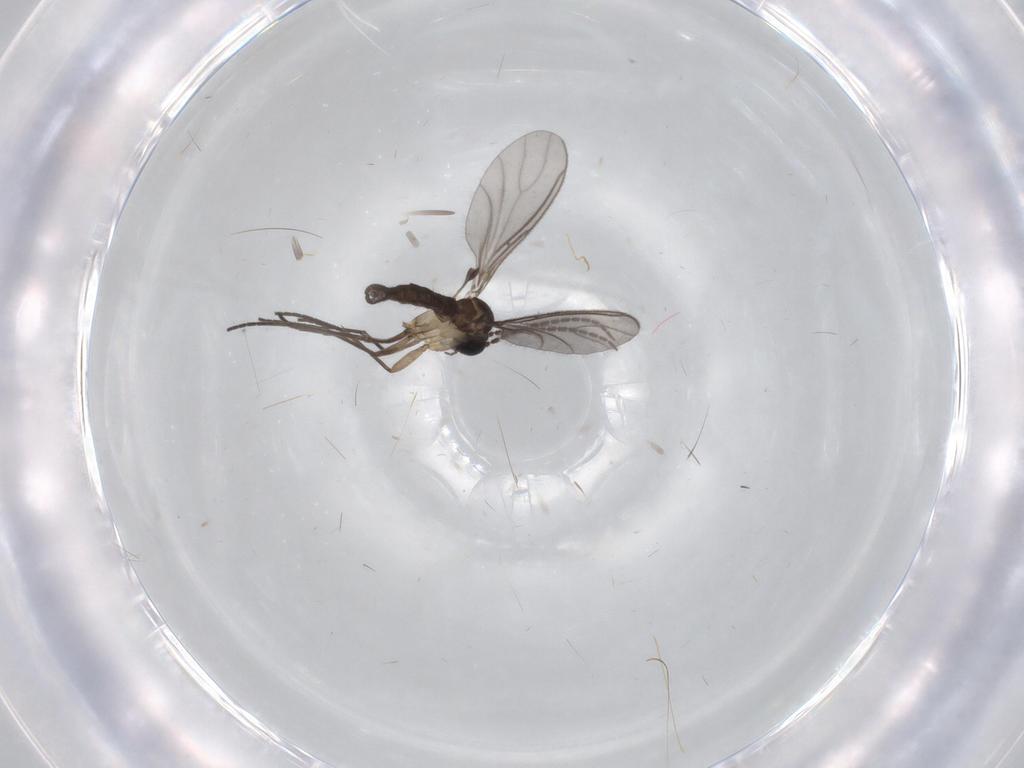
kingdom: Animalia
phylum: Arthropoda
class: Insecta
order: Diptera
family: Sciaridae
